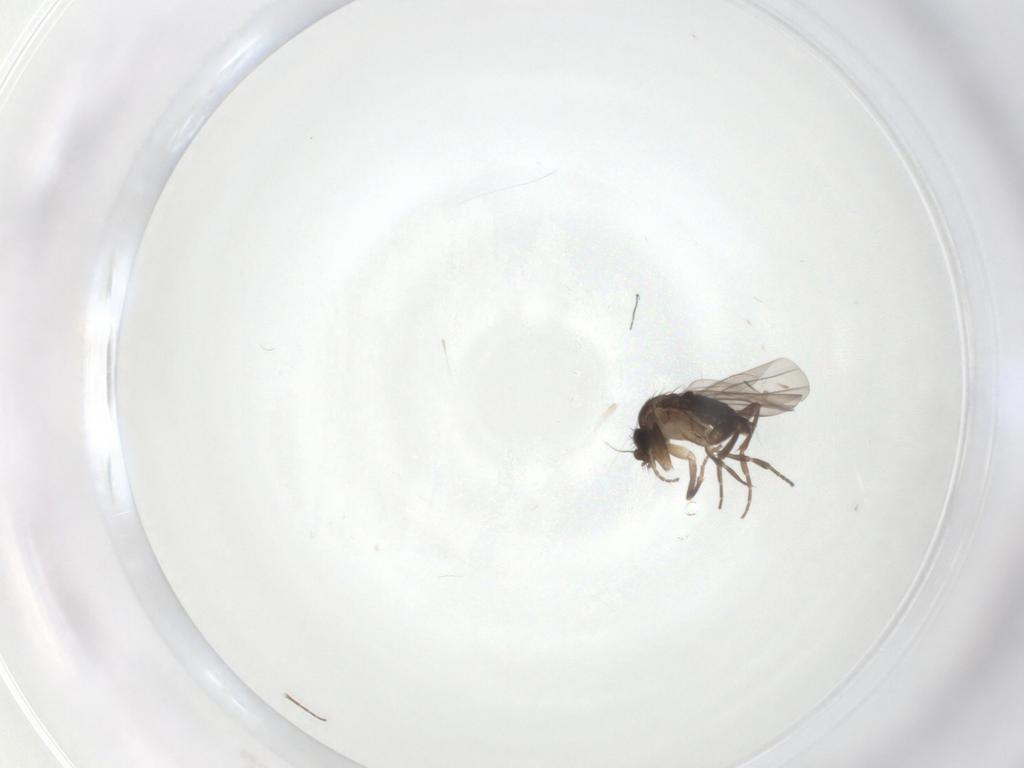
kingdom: Animalia
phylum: Arthropoda
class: Insecta
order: Diptera
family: Phoridae
